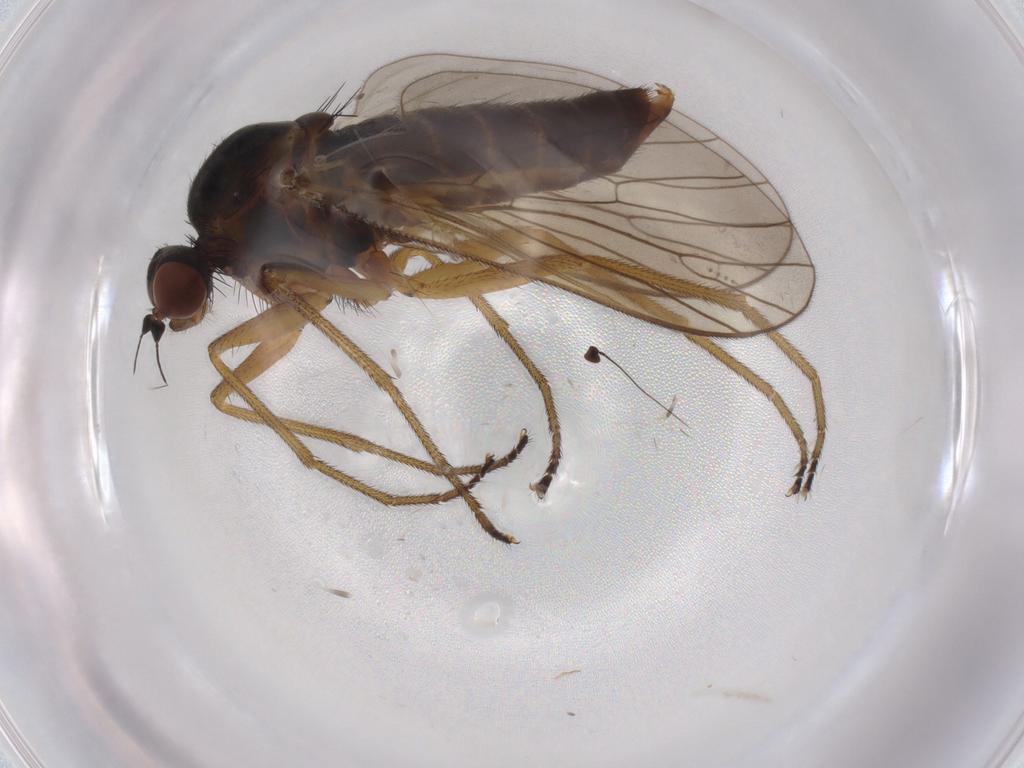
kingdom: Animalia
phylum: Arthropoda
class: Insecta
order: Diptera
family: Brachystomatidae
